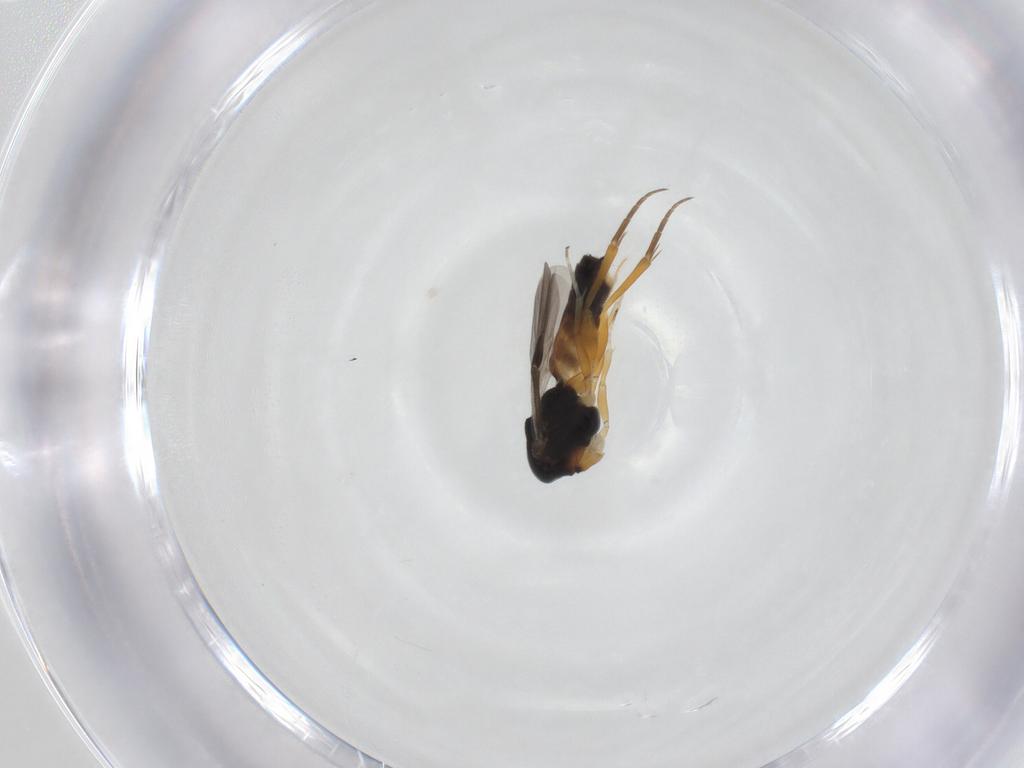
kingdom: Animalia
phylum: Arthropoda
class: Insecta
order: Hymenoptera
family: Braconidae
